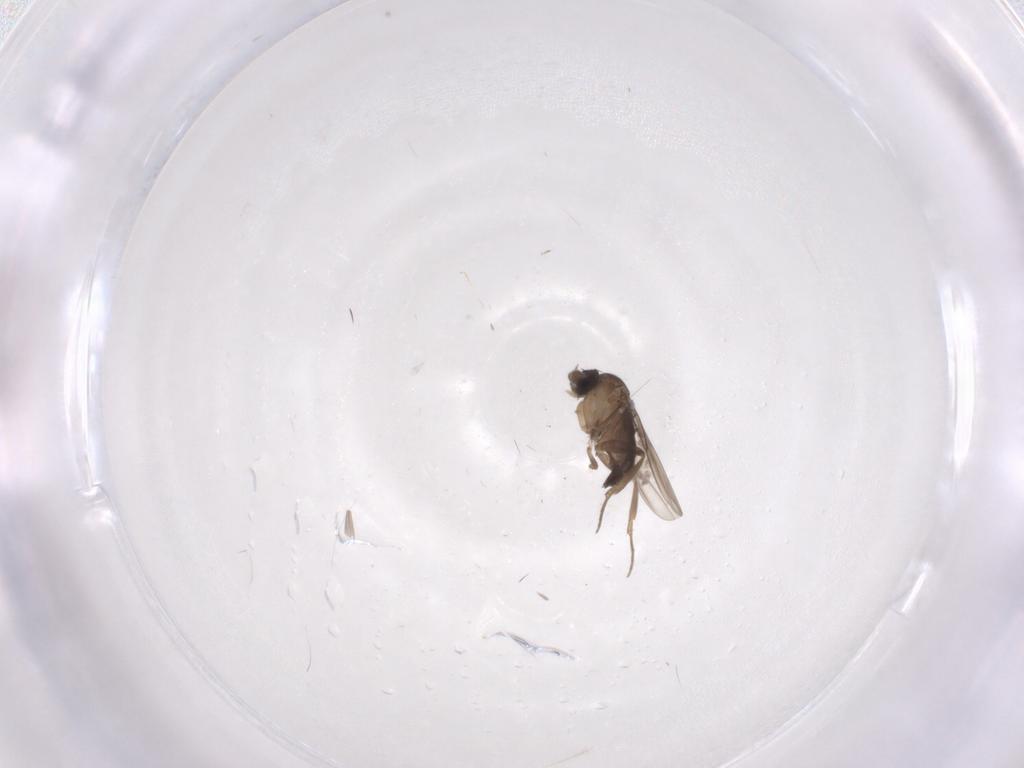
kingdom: Animalia
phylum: Arthropoda
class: Insecta
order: Diptera
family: Phoridae
